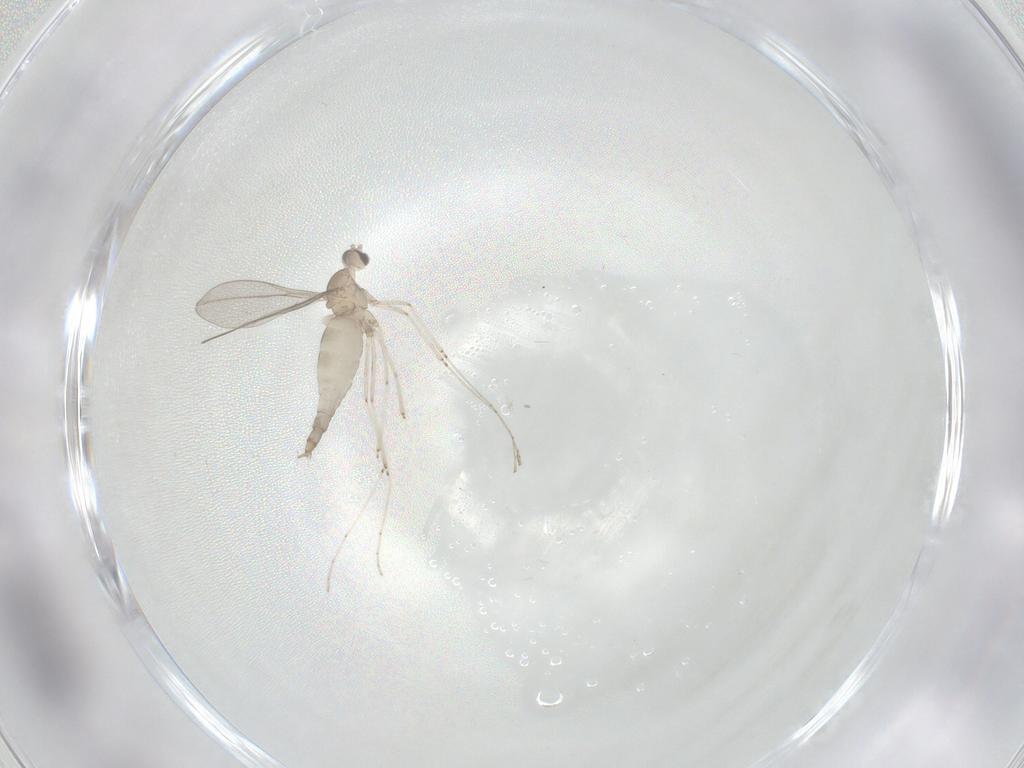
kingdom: Animalia
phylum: Arthropoda
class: Insecta
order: Diptera
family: Cecidomyiidae
